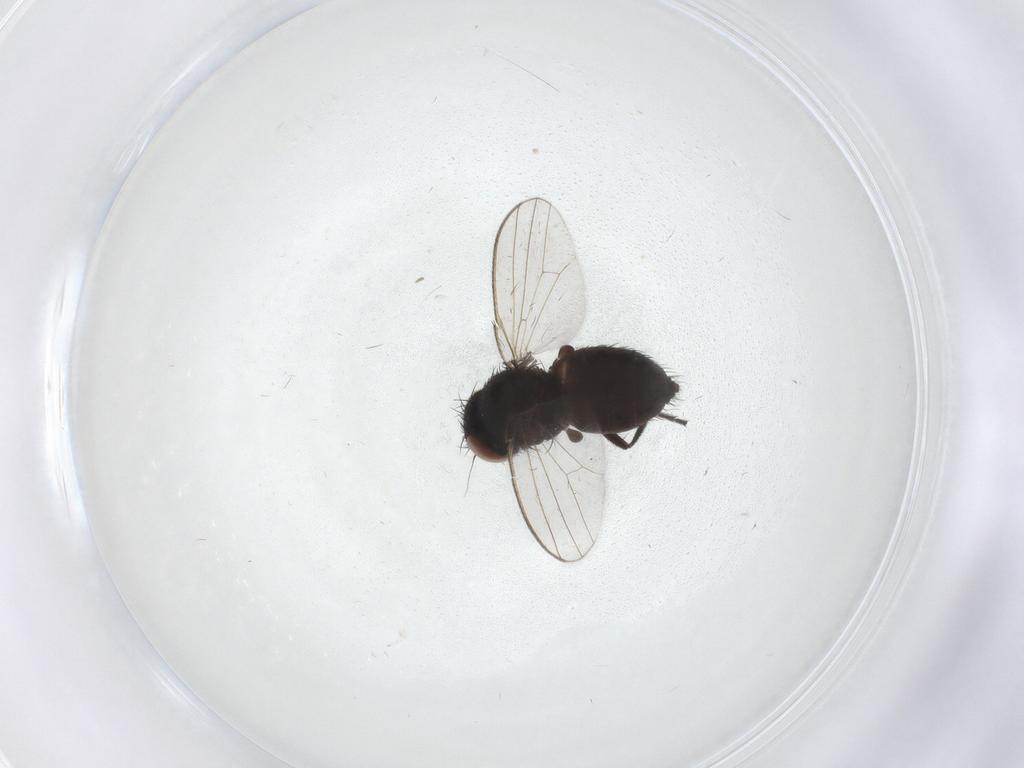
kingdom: Animalia
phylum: Arthropoda
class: Insecta
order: Diptera
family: Milichiidae
